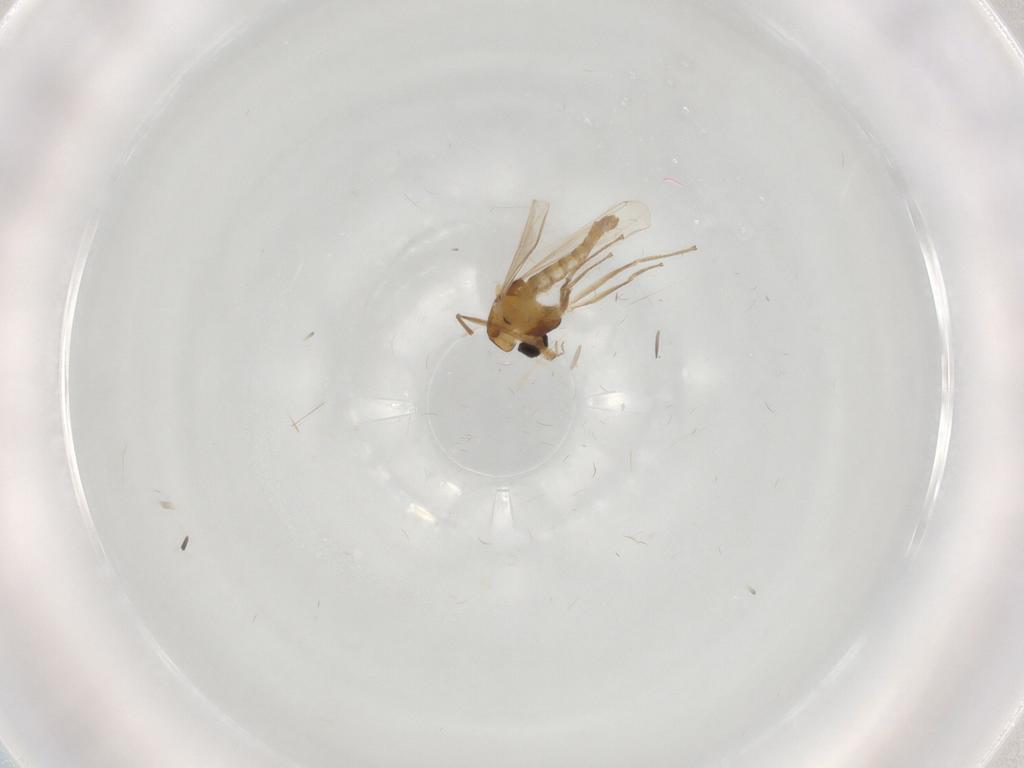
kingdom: Animalia
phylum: Arthropoda
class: Insecta
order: Diptera
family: Chironomidae
